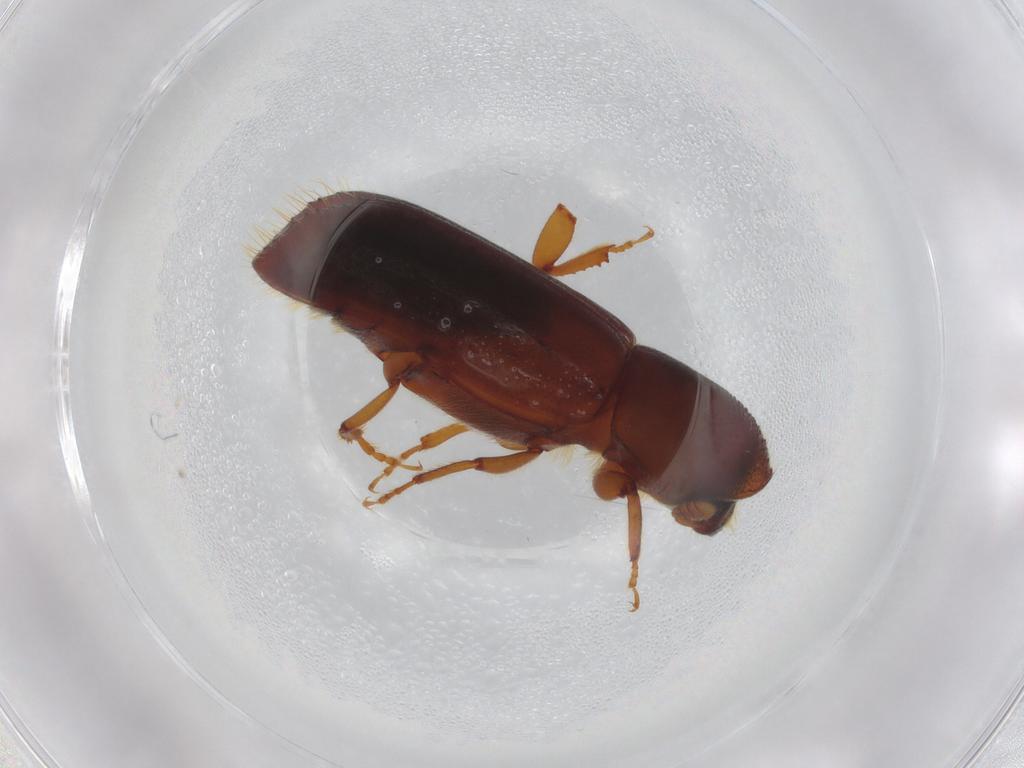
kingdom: Animalia
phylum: Arthropoda
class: Insecta
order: Coleoptera
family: Curculionidae
